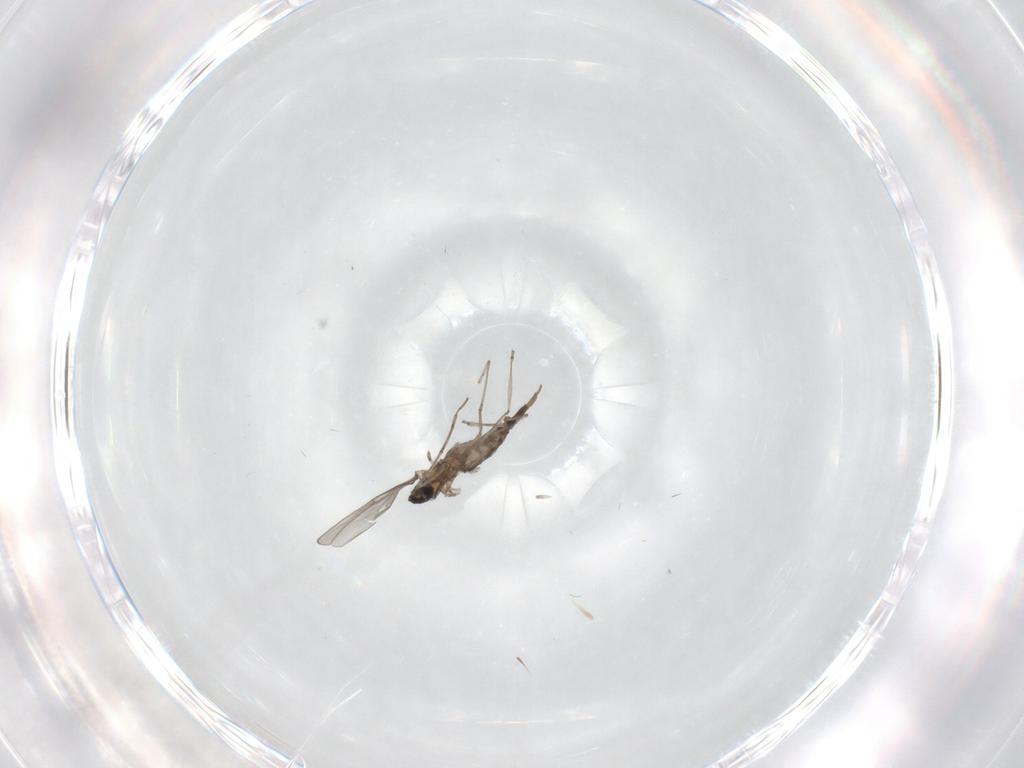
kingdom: Animalia
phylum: Arthropoda
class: Insecta
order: Diptera
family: Cecidomyiidae
